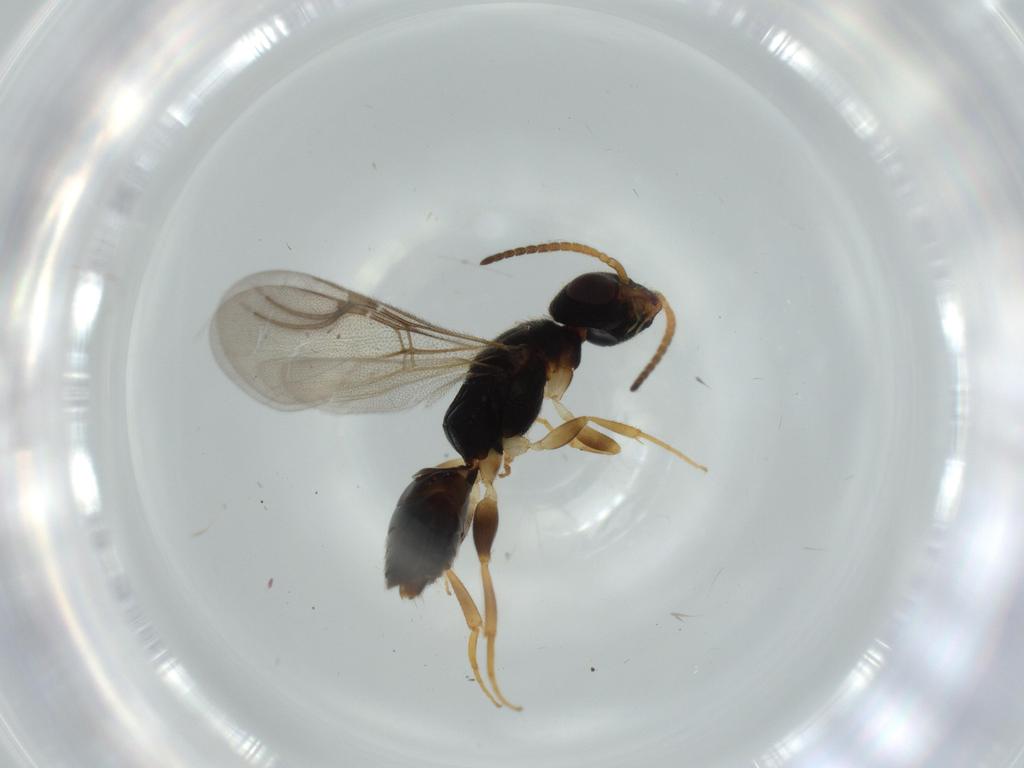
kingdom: Animalia
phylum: Arthropoda
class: Insecta
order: Hymenoptera
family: Bethylidae
